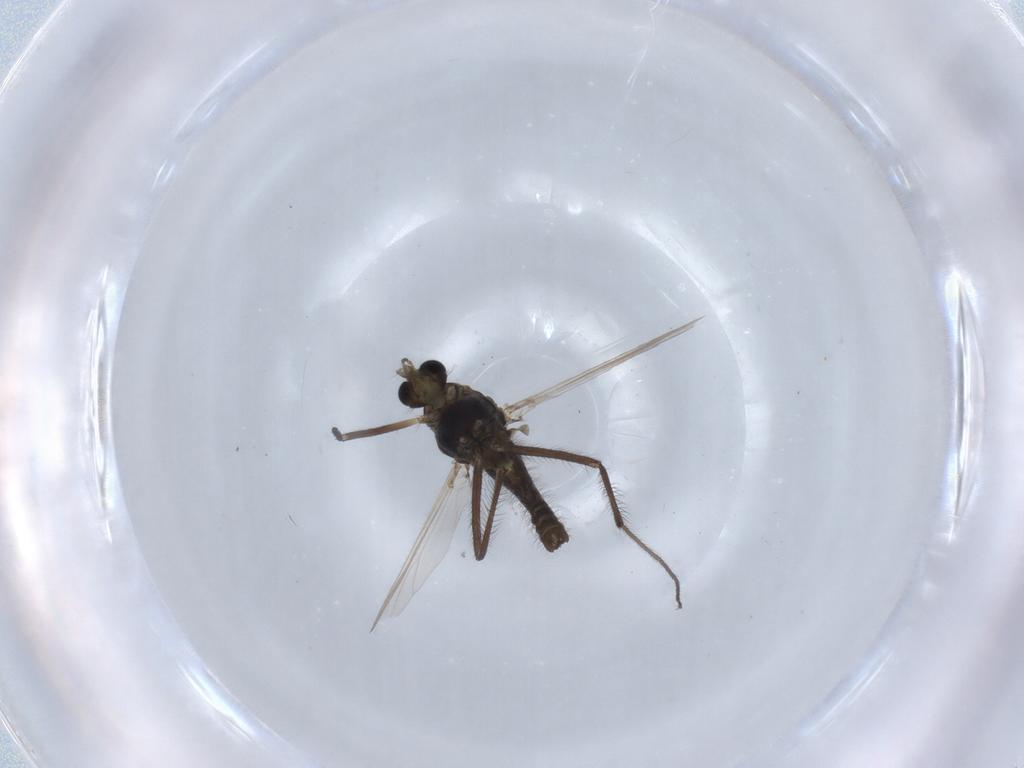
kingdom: Animalia
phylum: Arthropoda
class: Insecta
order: Diptera
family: Chironomidae
